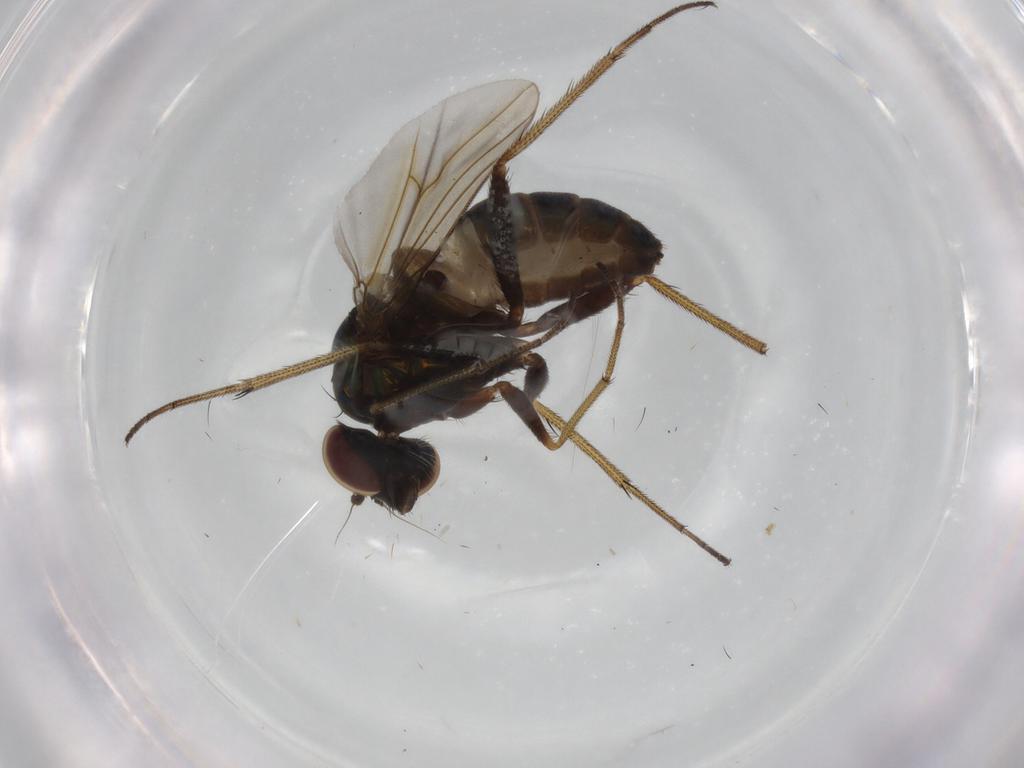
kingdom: Animalia
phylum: Arthropoda
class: Insecta
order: Diptera
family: Dolichopodidae
